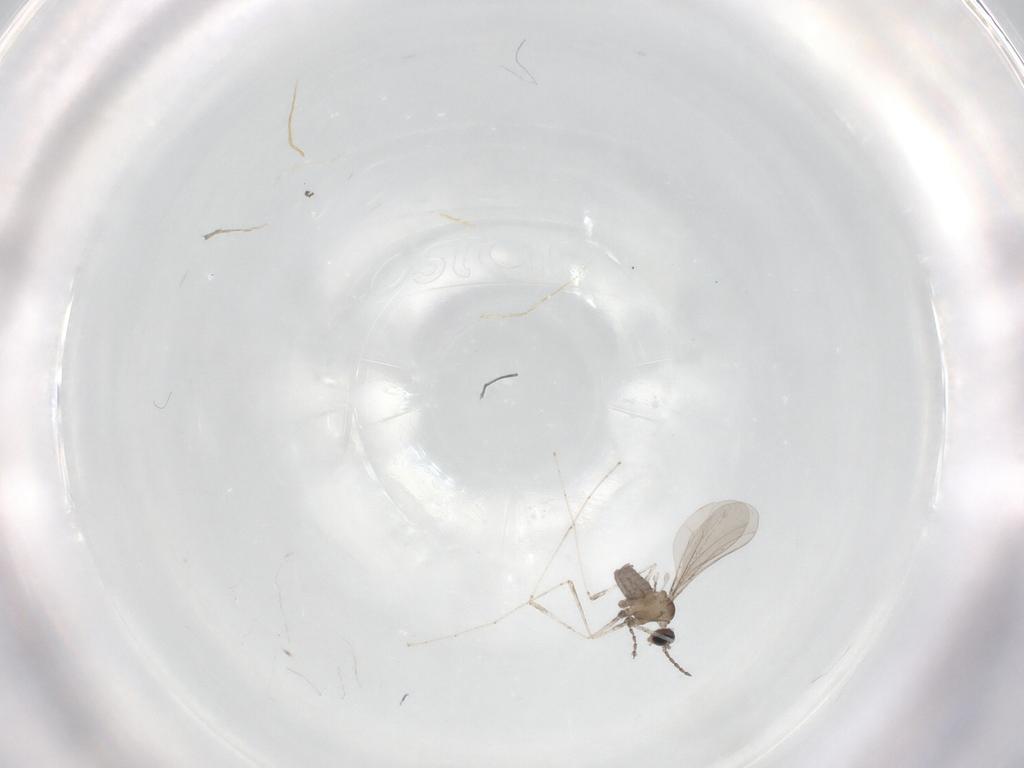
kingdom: Animalia
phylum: Arthropoda
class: Insecta
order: Diptera
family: Cecidomyiidae
